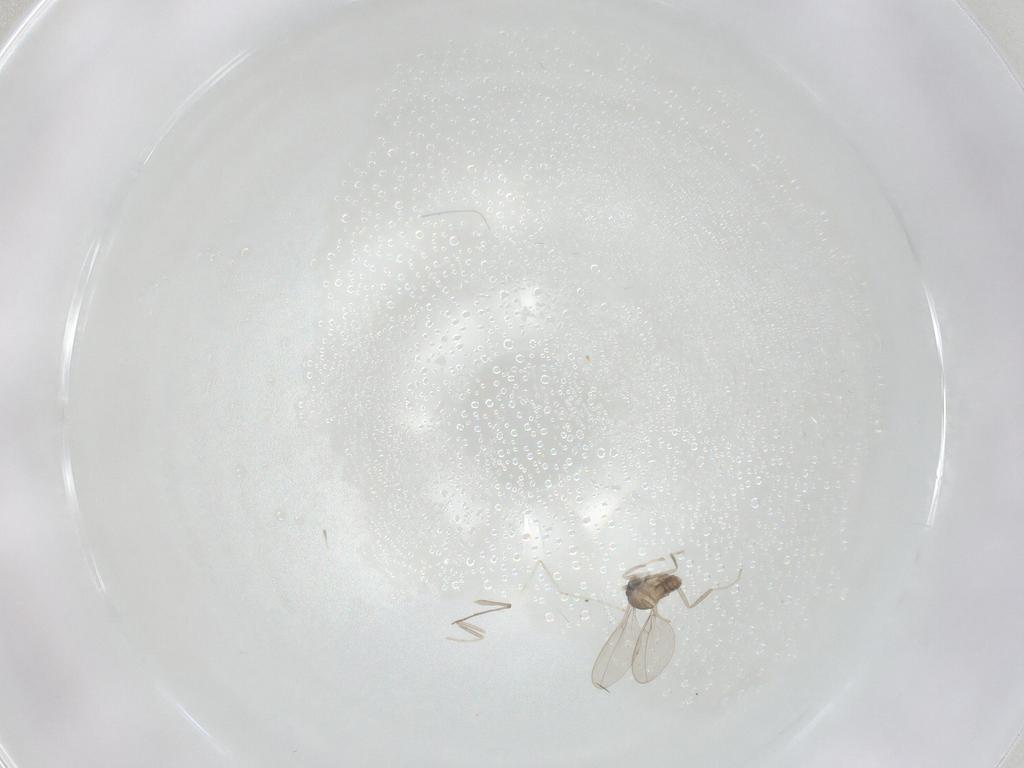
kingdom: Animalia
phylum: Arthropoda
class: Insecta
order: Diptera
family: Cecidomyiidae
